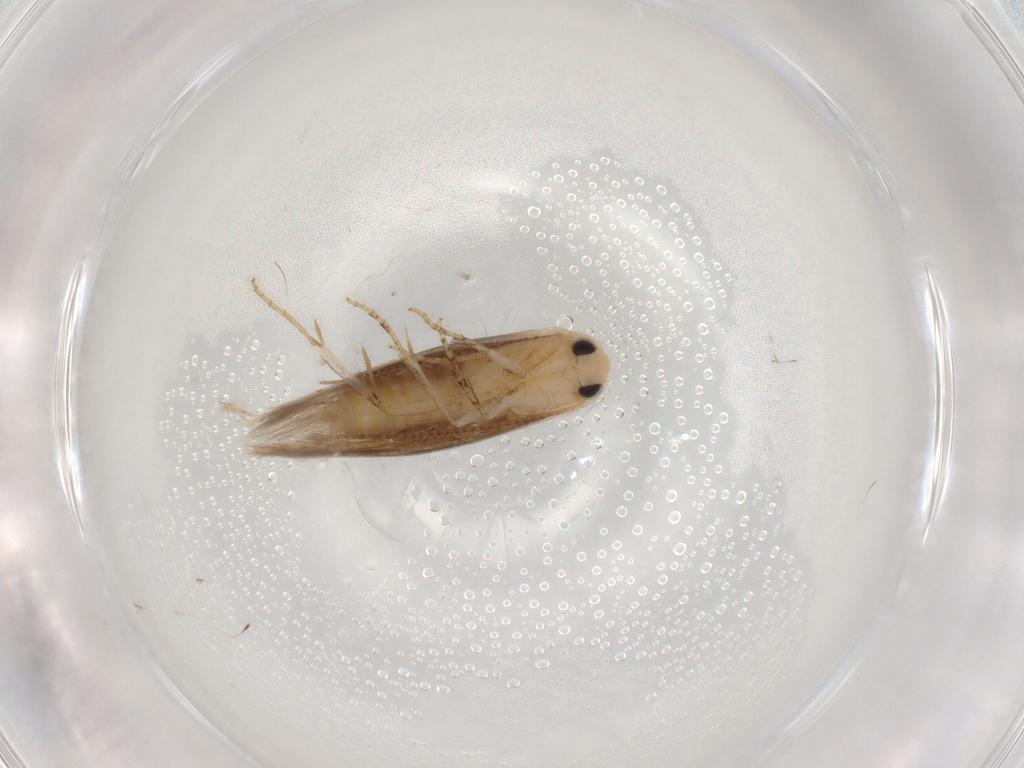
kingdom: Animalia
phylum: Arthropoda
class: Insecta
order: Lepidoptera
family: Bucculatricidae
